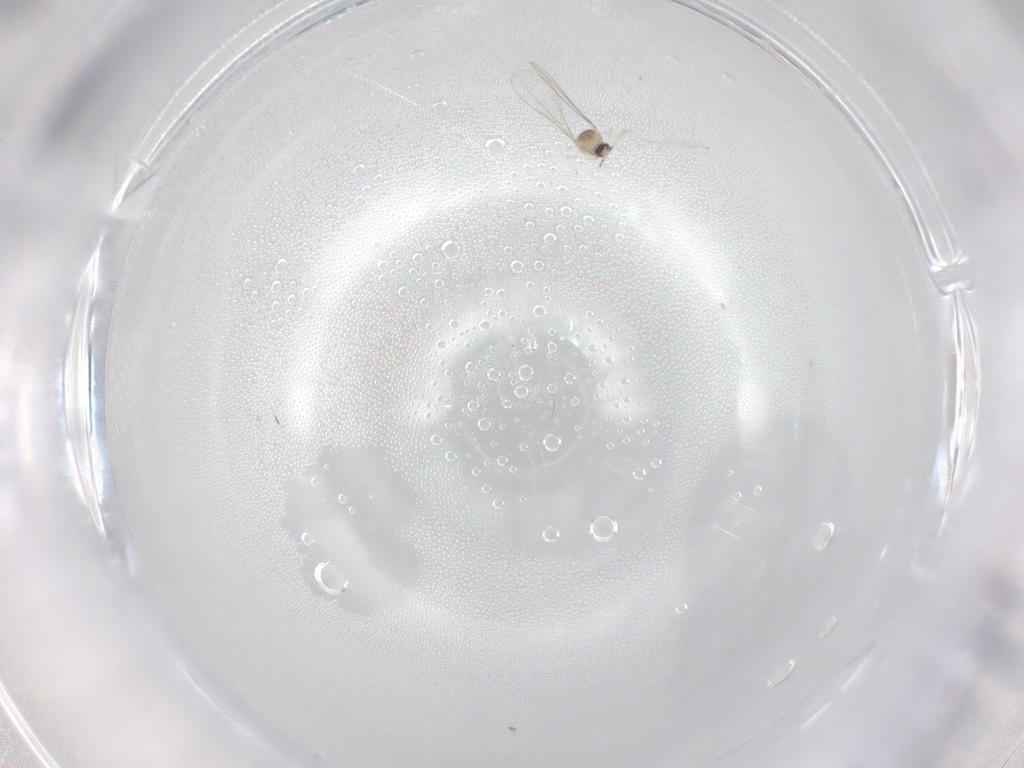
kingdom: Animalia
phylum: Arthropoda
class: Insecta
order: Diptera
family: Cecidomyiidae
